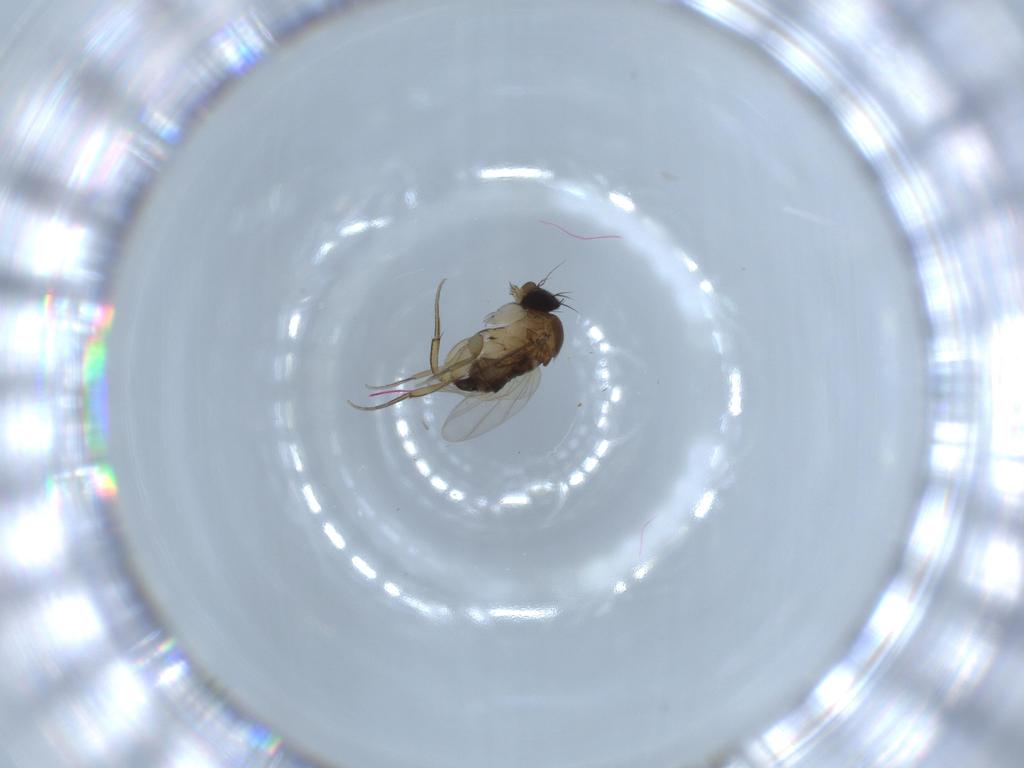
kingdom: Animalia
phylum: Arthropoda
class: Insecta
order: Diptera
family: Phoridae
